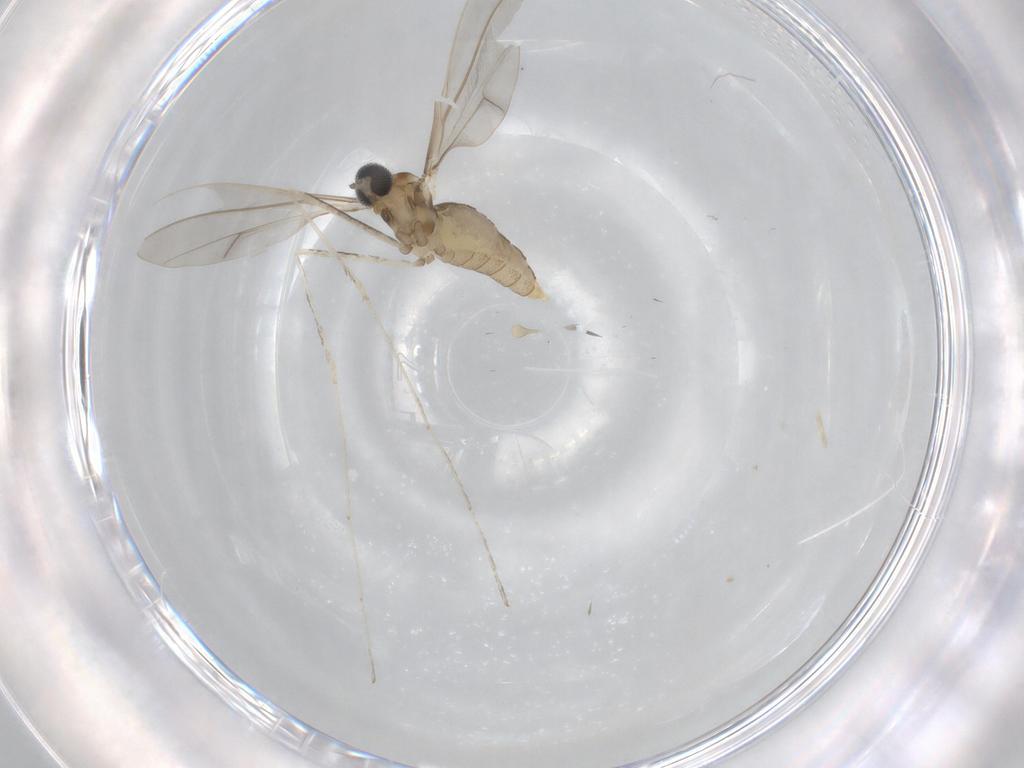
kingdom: Animalia
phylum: Arthropoda
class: Insecta
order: Diptera
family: Cecidomyiidae
